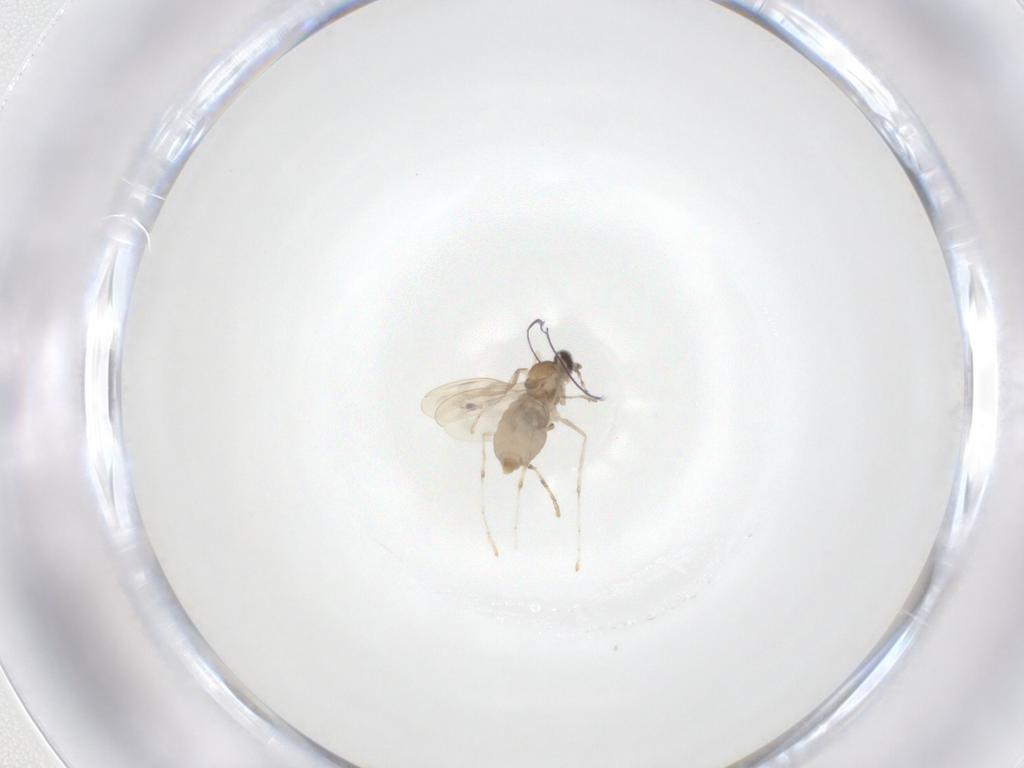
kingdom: Animalia
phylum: Arthropoda
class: Insecta
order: Diptera
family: Cecidomyiidae
